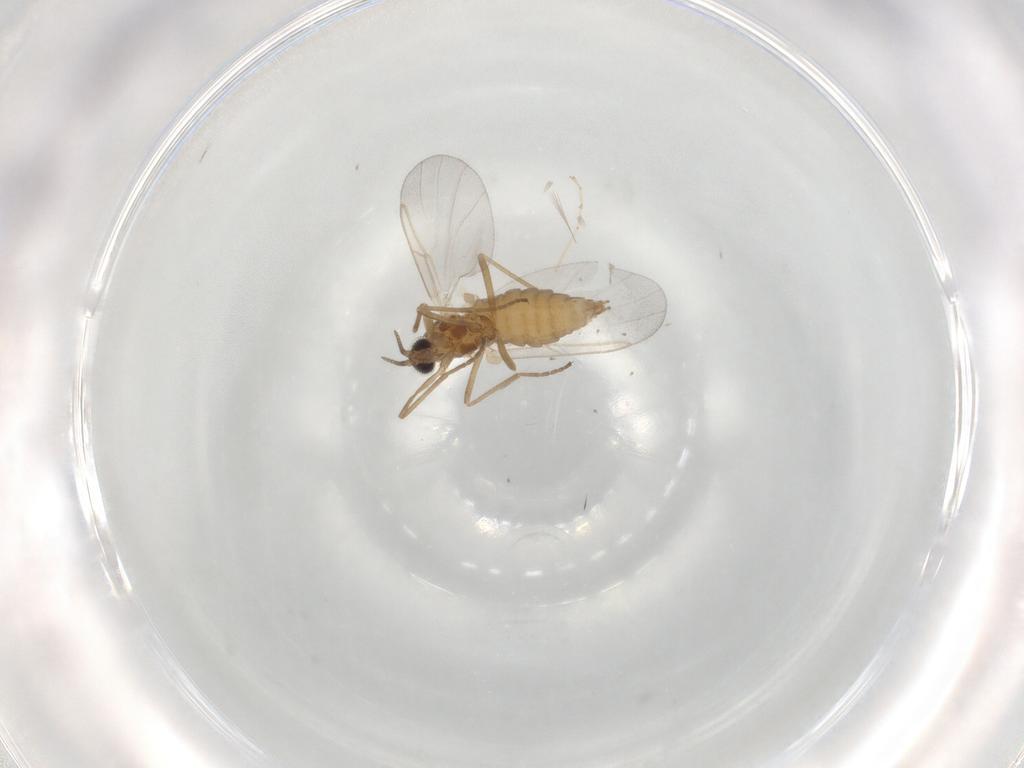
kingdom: Animalia
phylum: Arthropoda
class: Insecta
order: Diptera
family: Cecidomyiidae
